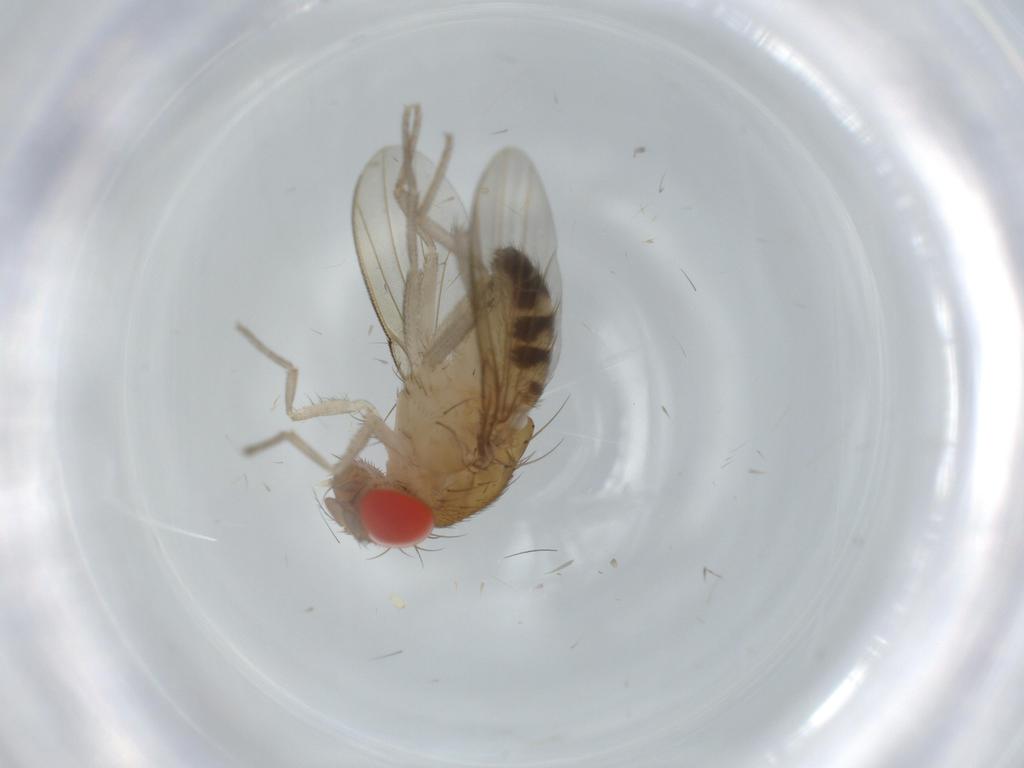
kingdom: Animalia
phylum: Arthropoda
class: Insecta
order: Diptera
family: Drosophilidae
